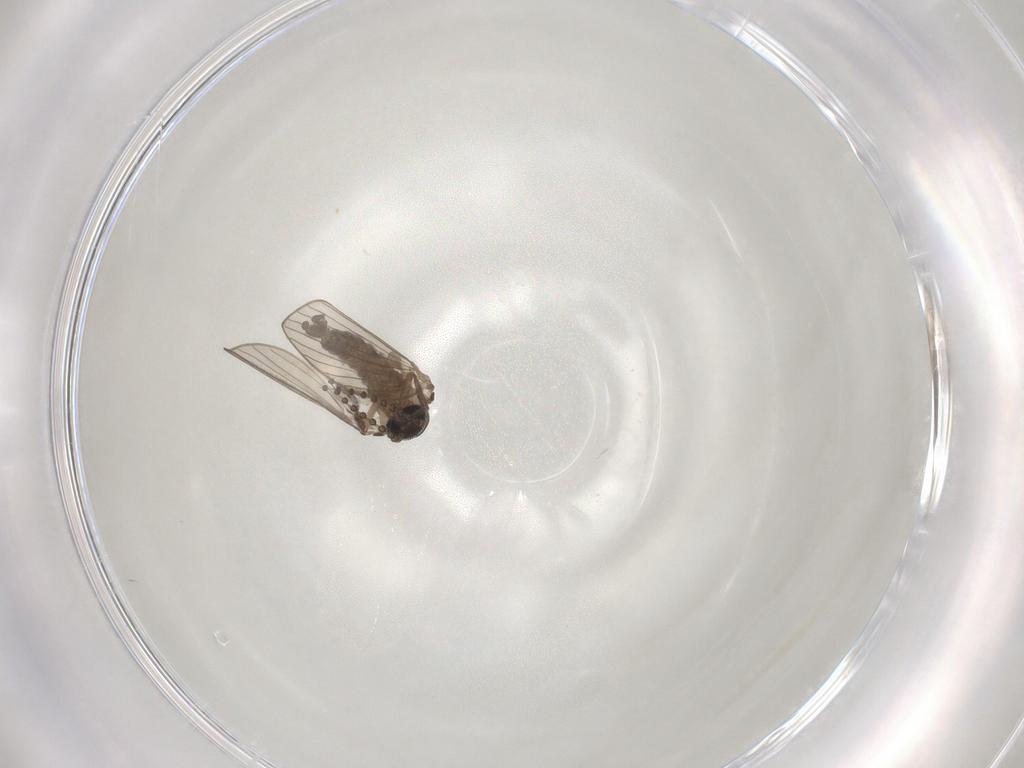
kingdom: Animalia
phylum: Arthropoda
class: Insecta
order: Diptera
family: Psychodidae
